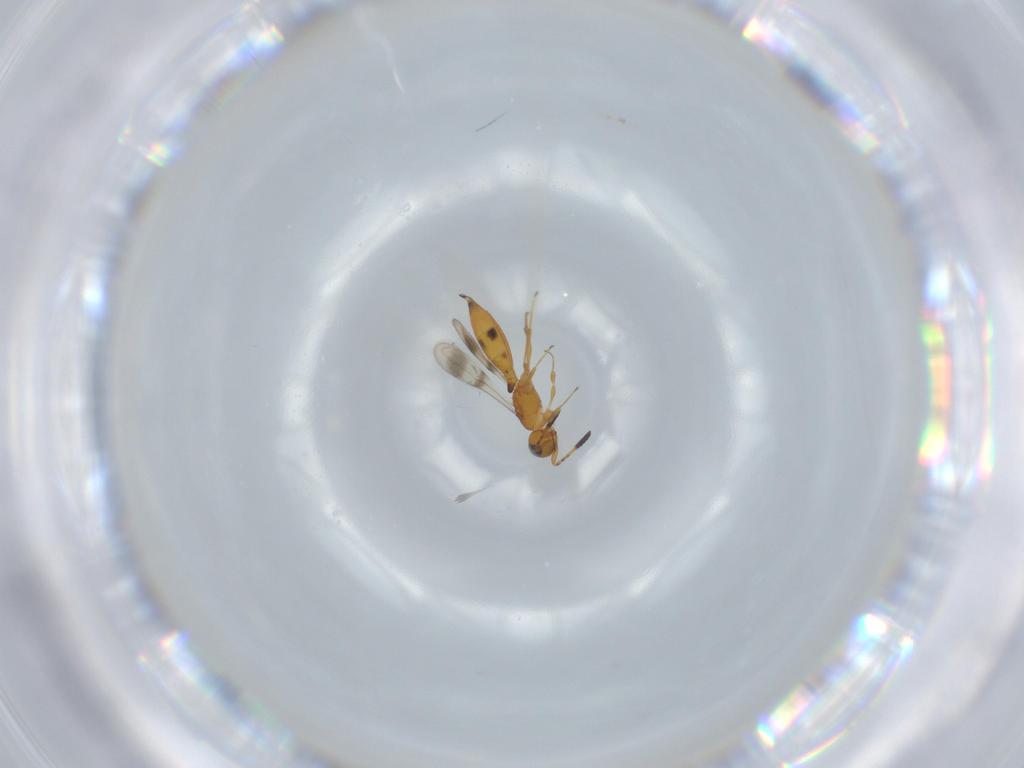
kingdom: Animalia
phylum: Arthropoda
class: Insecta
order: Hymenoptera
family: Scelionidae
